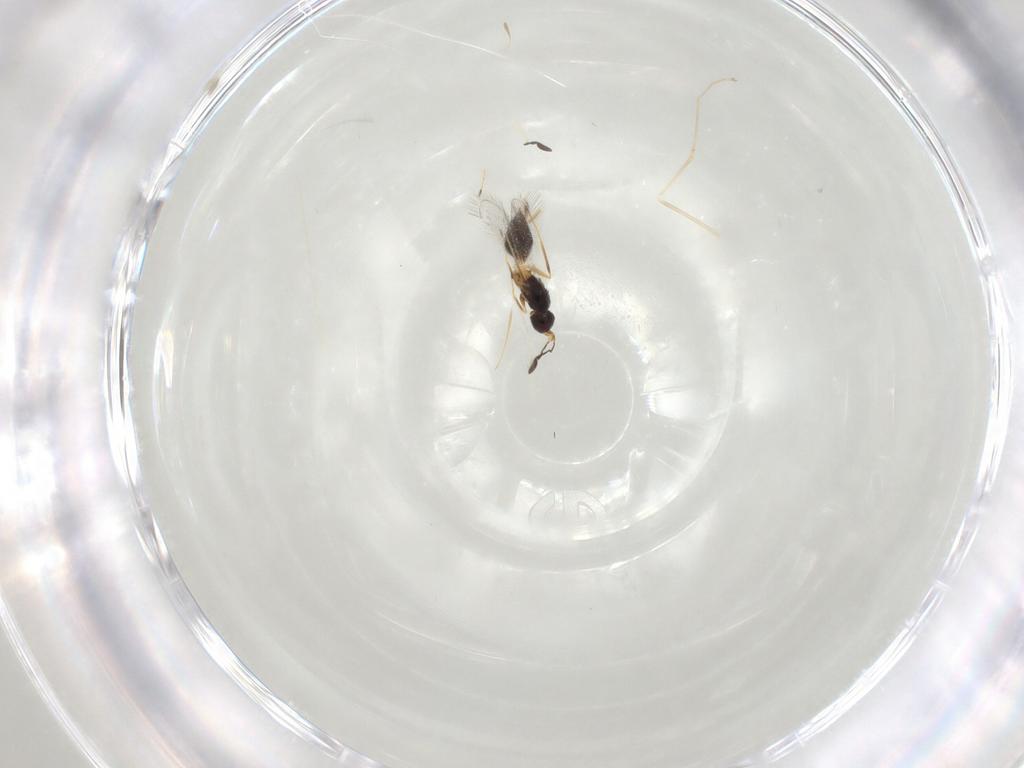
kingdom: Animalia
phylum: Arthropoda
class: Insecta
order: Hymenoptera
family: Mymaridae
